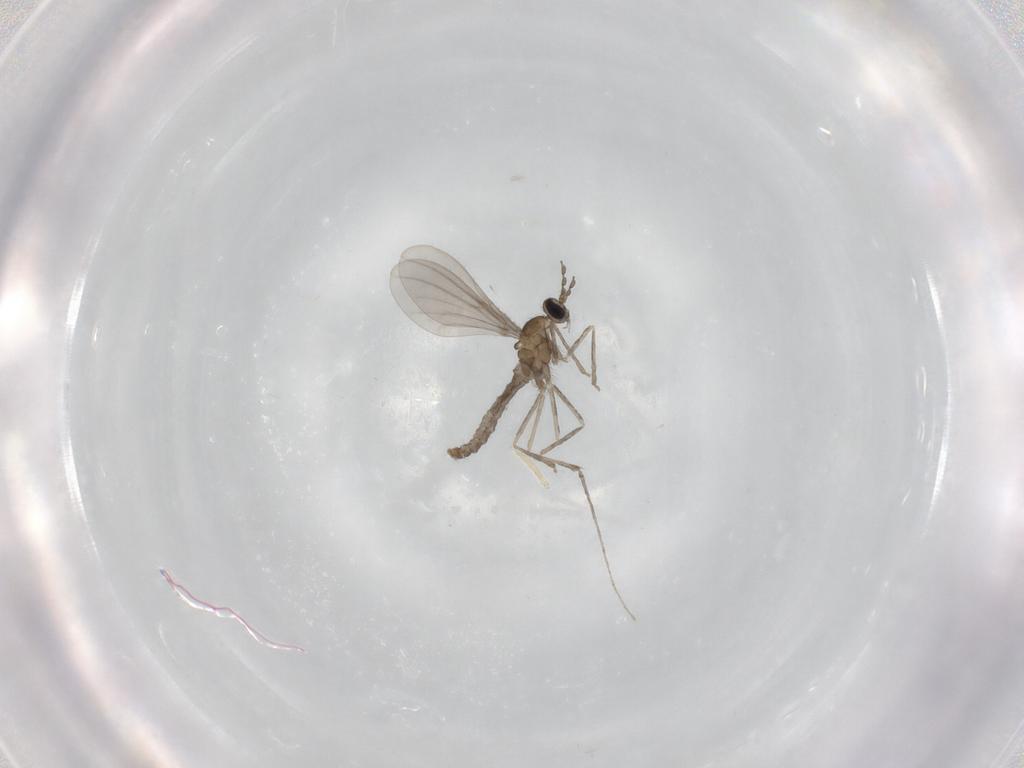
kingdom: Animalia
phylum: Arthropoda
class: Insecta
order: Diptera
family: Cecidomyiidae
